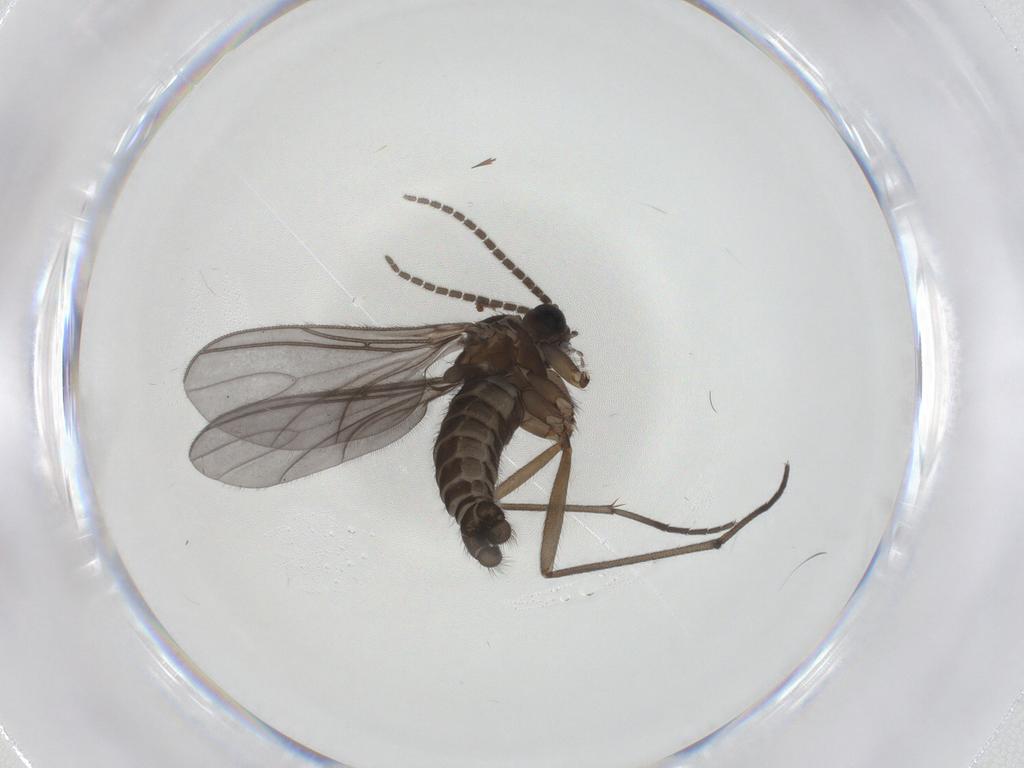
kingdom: Animalia
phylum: Arthropoda
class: Insecta
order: Diptera
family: Sciaridae
